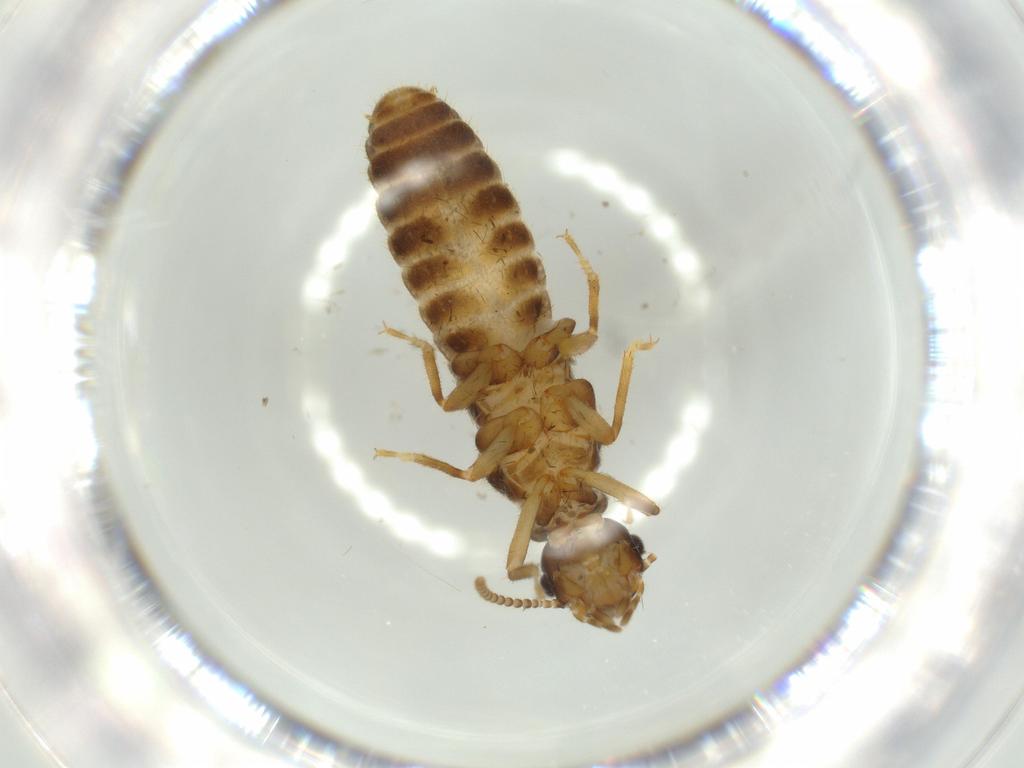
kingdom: Animalia
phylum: Arthropoda
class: Insecta
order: Blattodea
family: Termitidae
